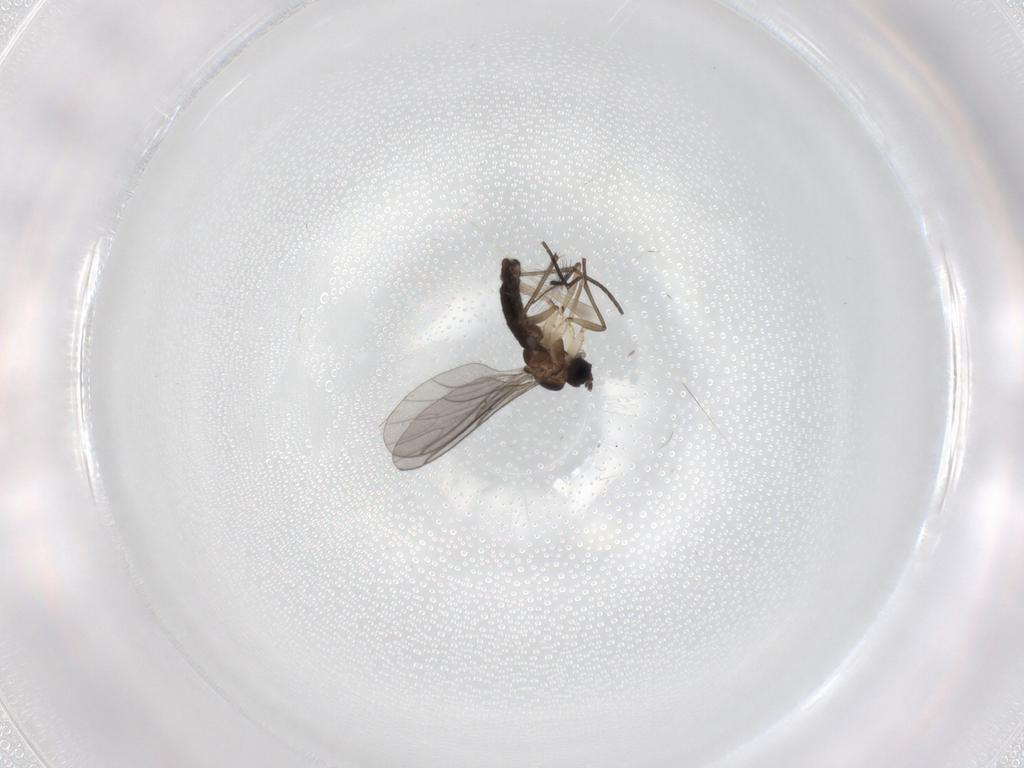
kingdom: Animalia
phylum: Arthropoda
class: Insecta
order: Diptera
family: Sciaridae
